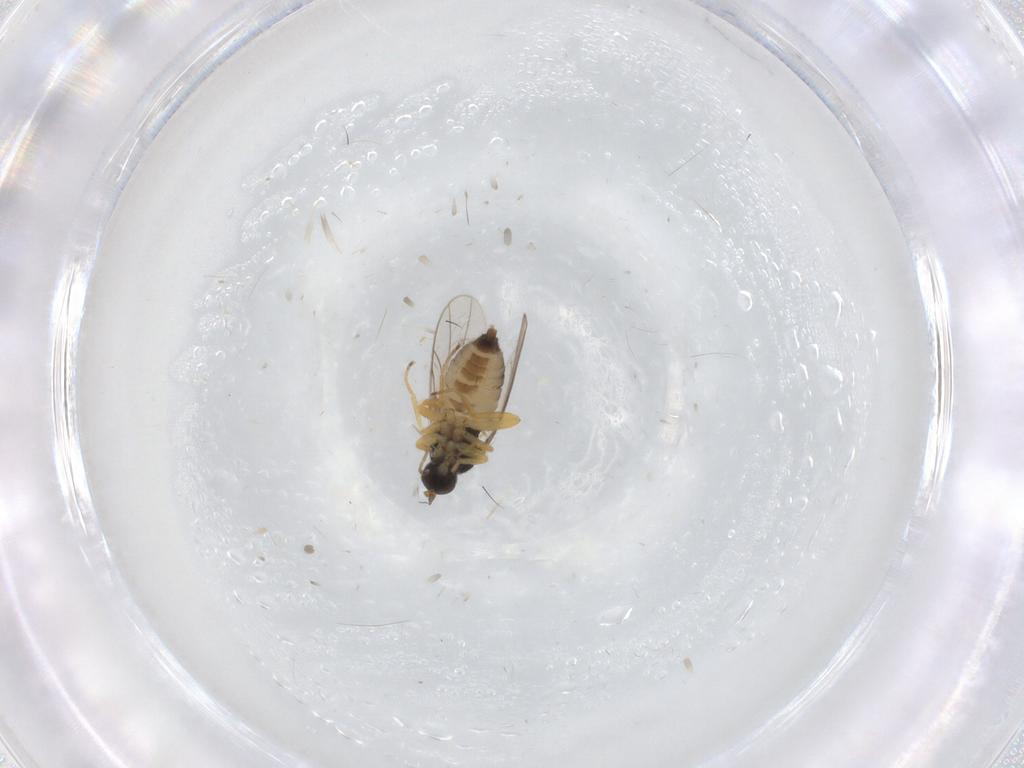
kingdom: Animalia
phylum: Arthropoda
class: Insecta
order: Diptera
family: Hybotidae
